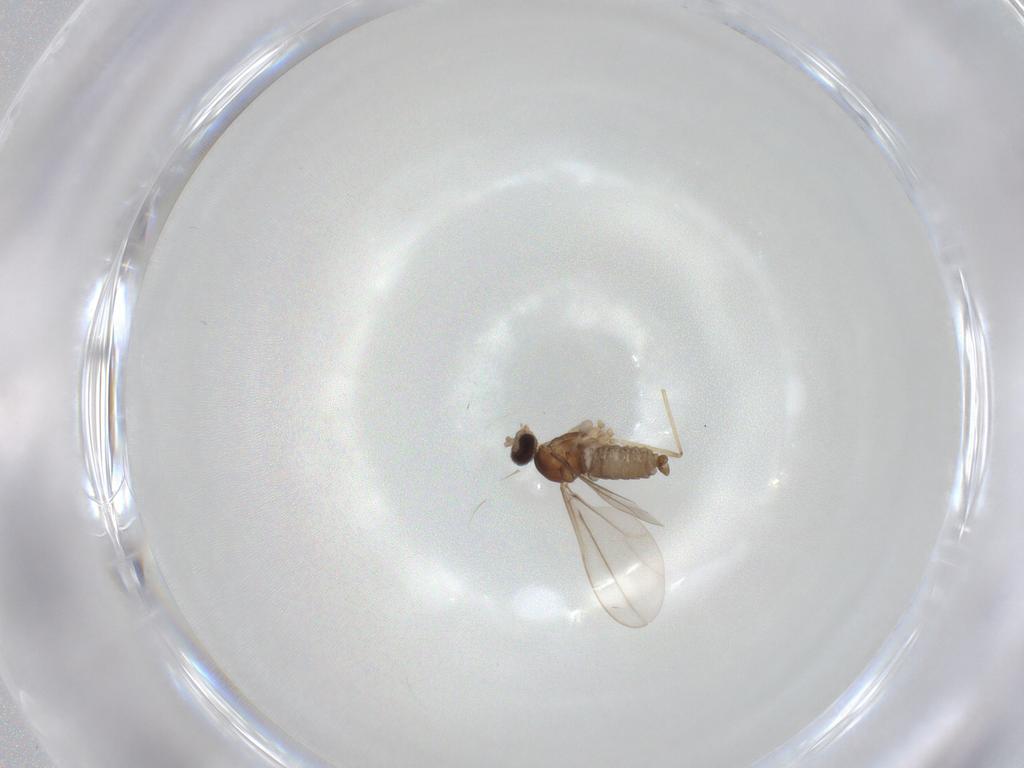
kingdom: Animalia
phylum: Arthropoda
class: Insecta
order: Diptera
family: Cecidomyiidae
